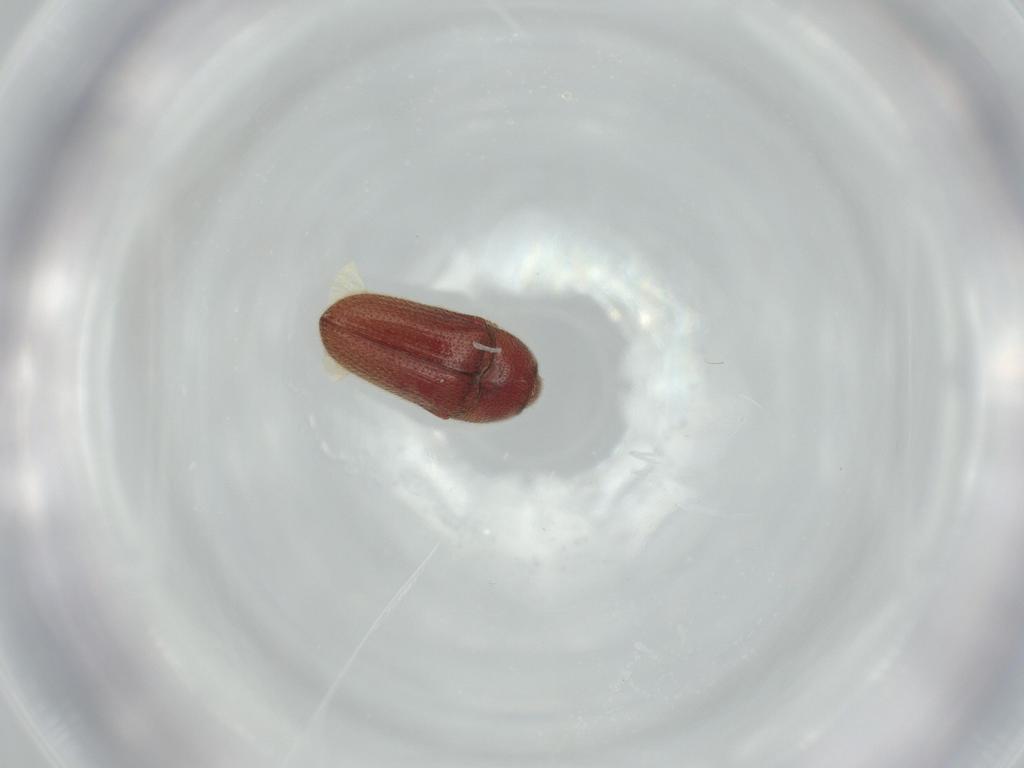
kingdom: Animalia
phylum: Arthropoda
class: Insecta
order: Coleoptera
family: Throscidae
